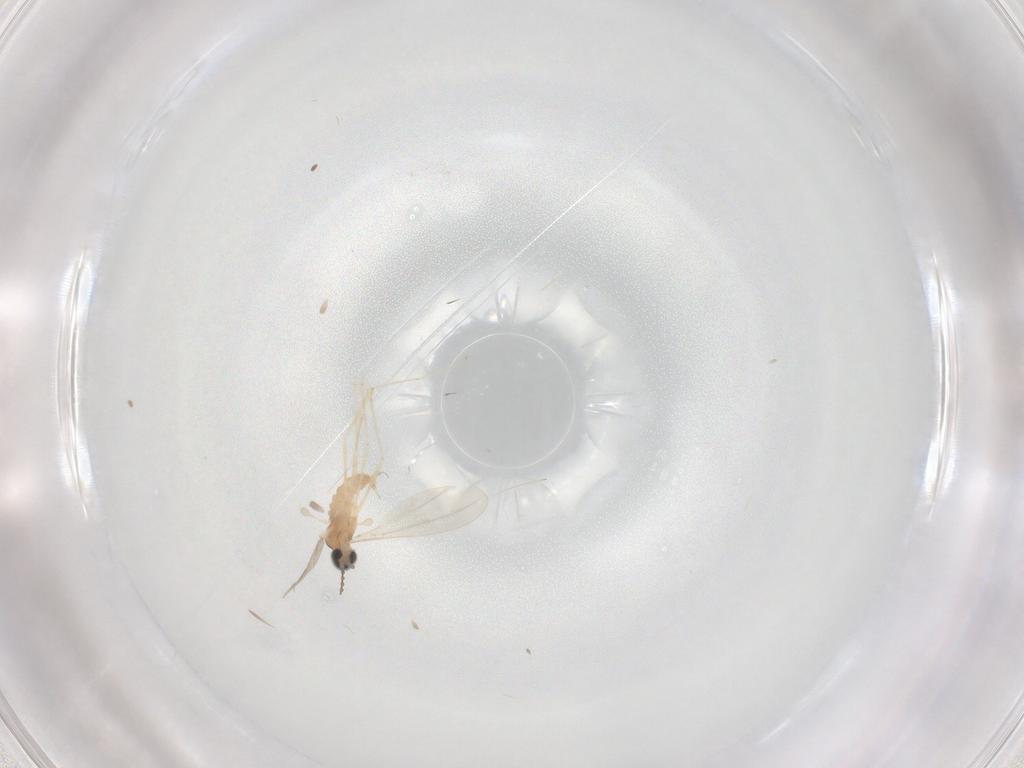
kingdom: Animalia
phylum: Arthropoda
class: Insecta
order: Diptera
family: Cecidomyiidae
